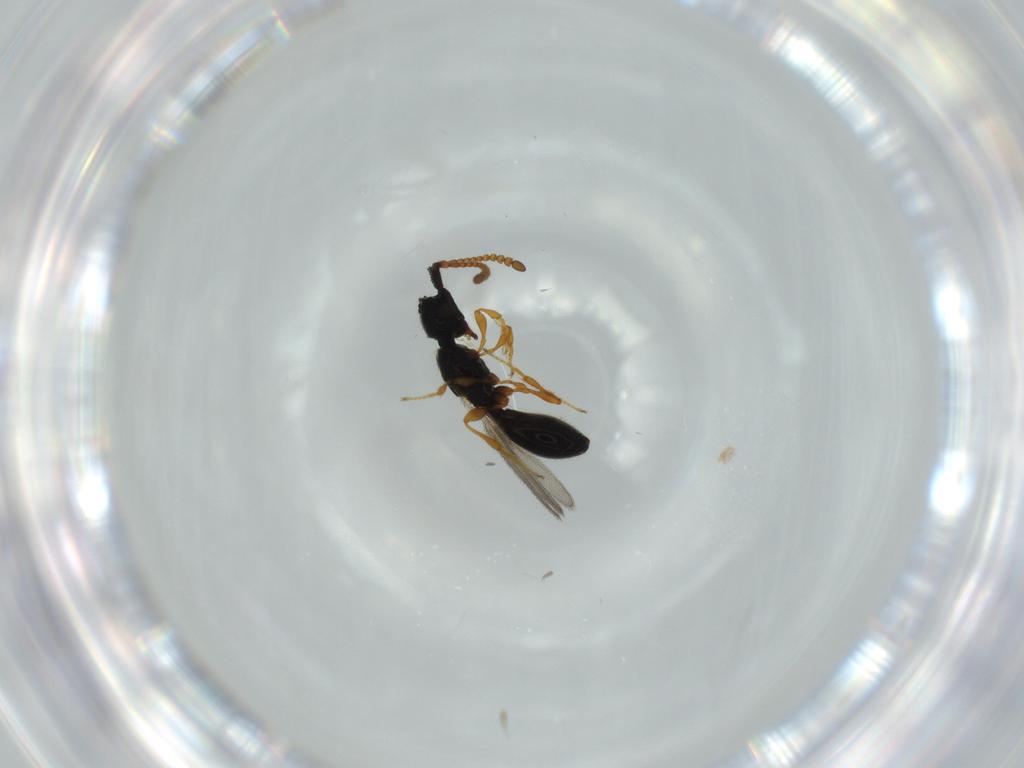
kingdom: Animalia
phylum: Arthropoda
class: Insecta
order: Hymenoptera
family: Diapriidae
